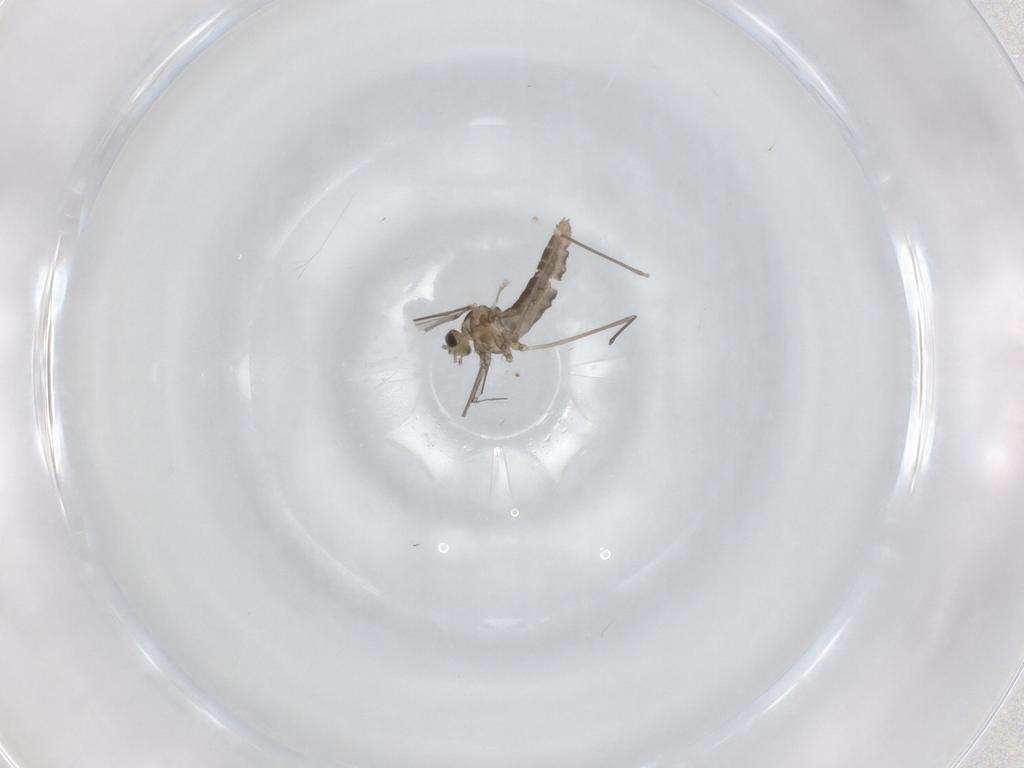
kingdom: Animalia
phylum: Arthropoda
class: Insecta
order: Diptera
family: Cecidomyiidae
